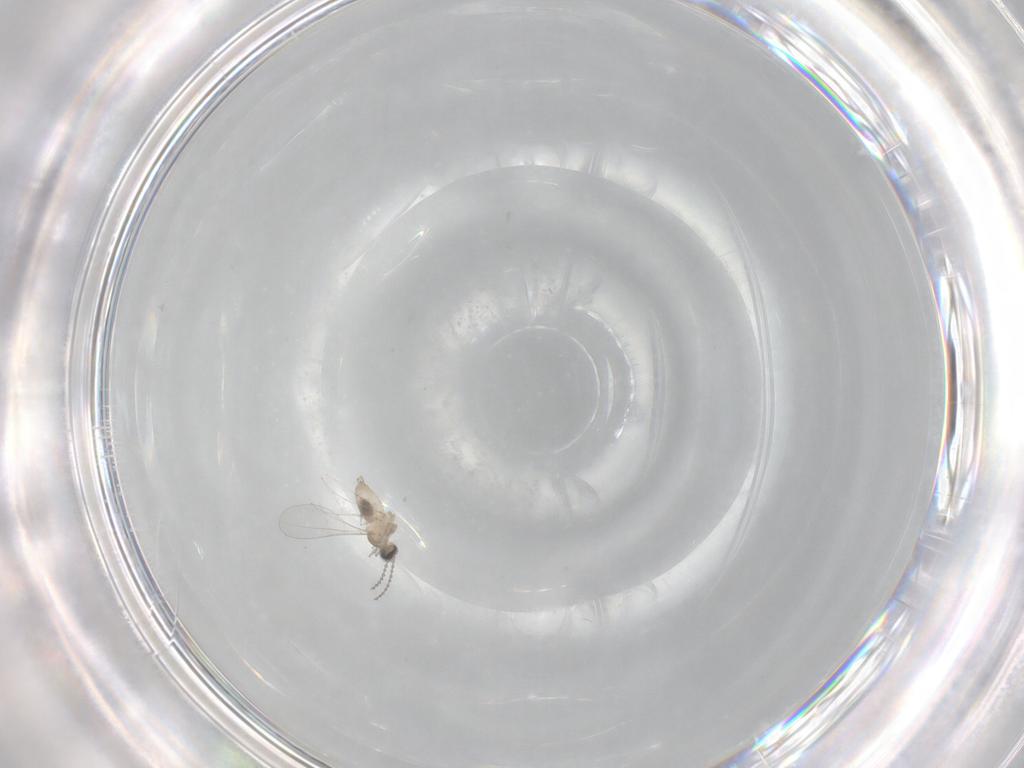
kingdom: Animalia
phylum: Arthropoda
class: Insecta
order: Diptera
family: Cecidomyiidae
